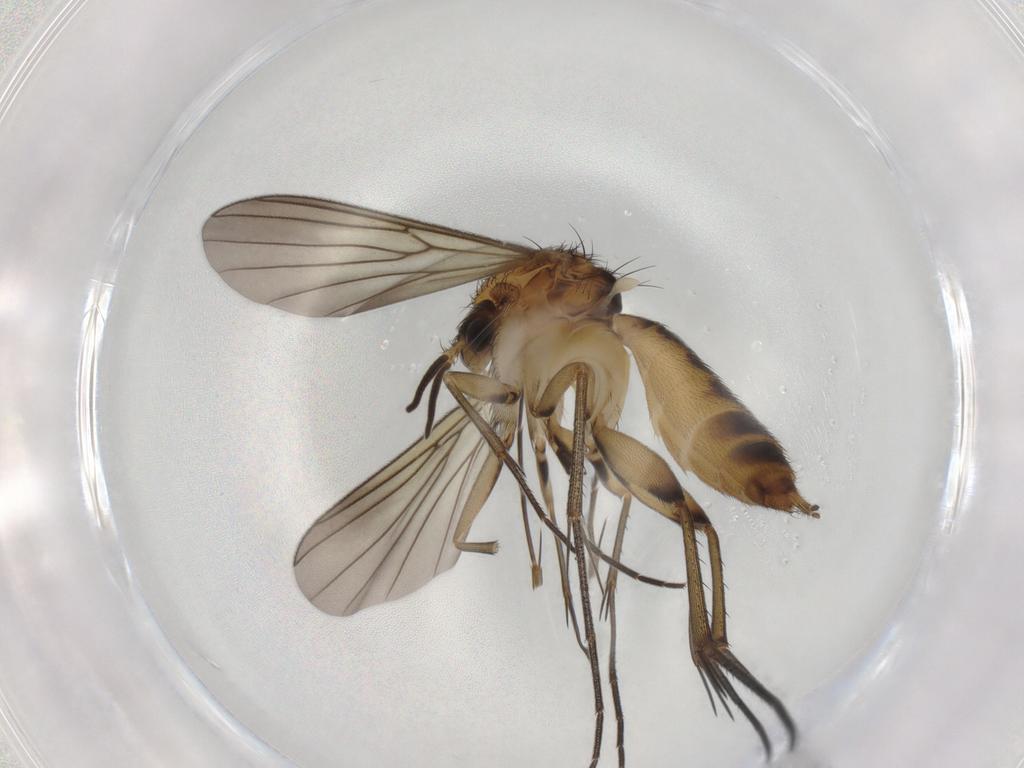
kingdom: Animalia
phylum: Arthropoda
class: Insecta
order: Diptera
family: Mycetophilidae
